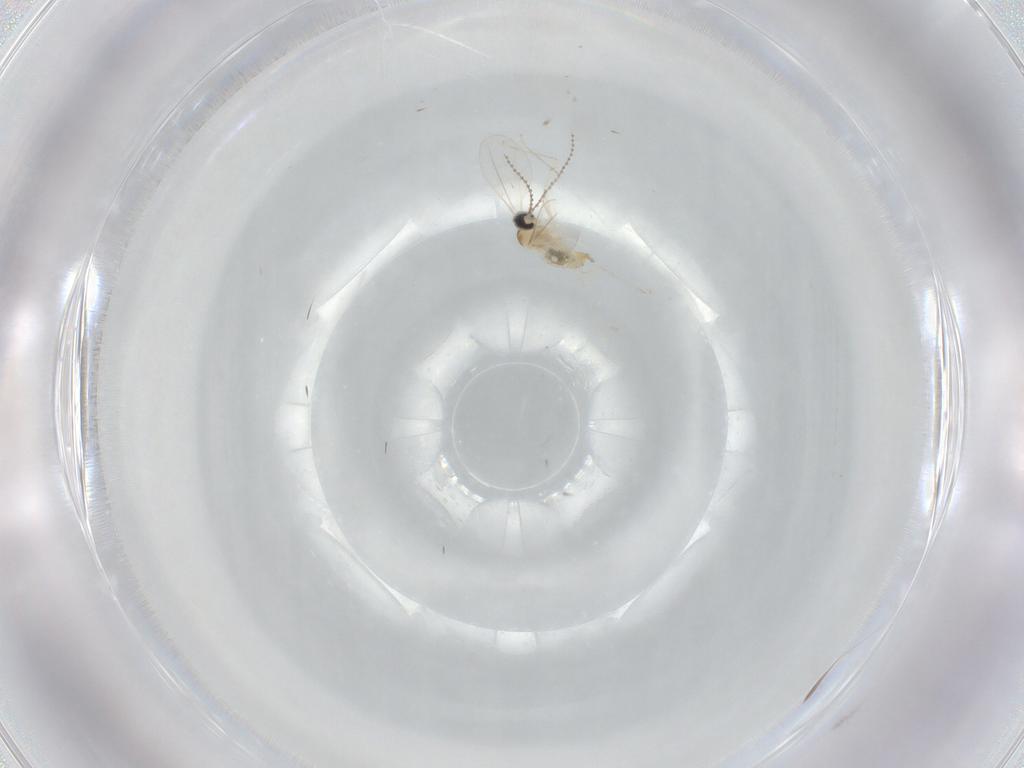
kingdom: Animalia
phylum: Arthropoda
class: Insecta
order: Diptera
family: Cecidomyiidae
